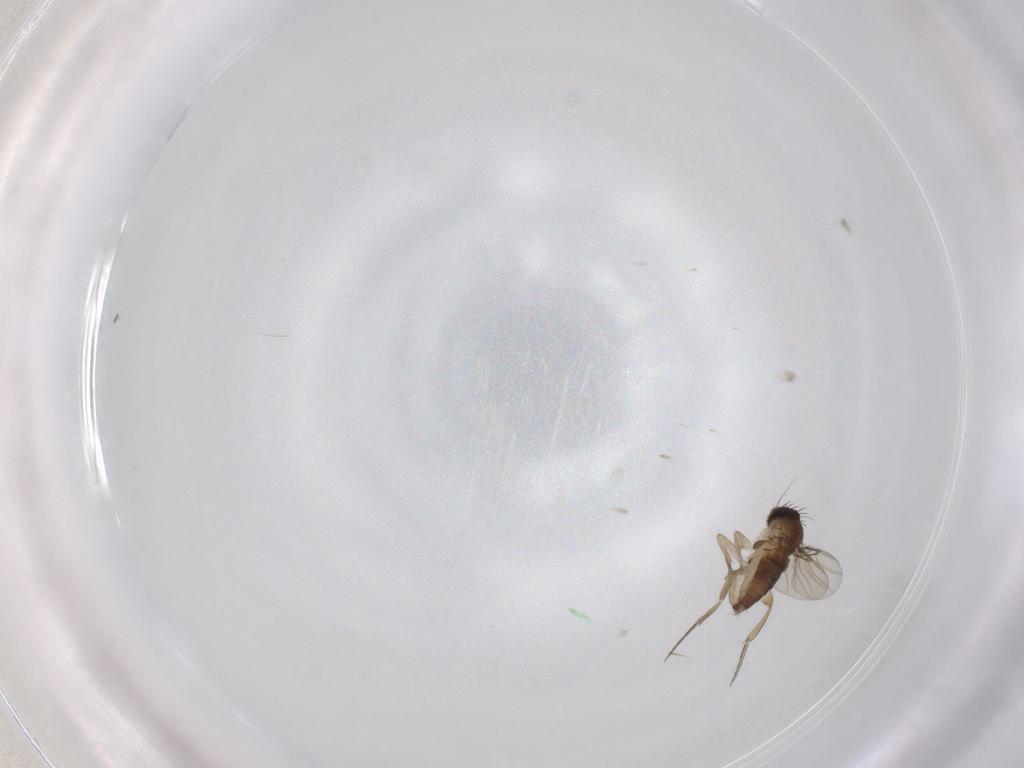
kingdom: Animalia
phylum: Arthropoda
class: Insecta
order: Diptera
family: Phoridae
